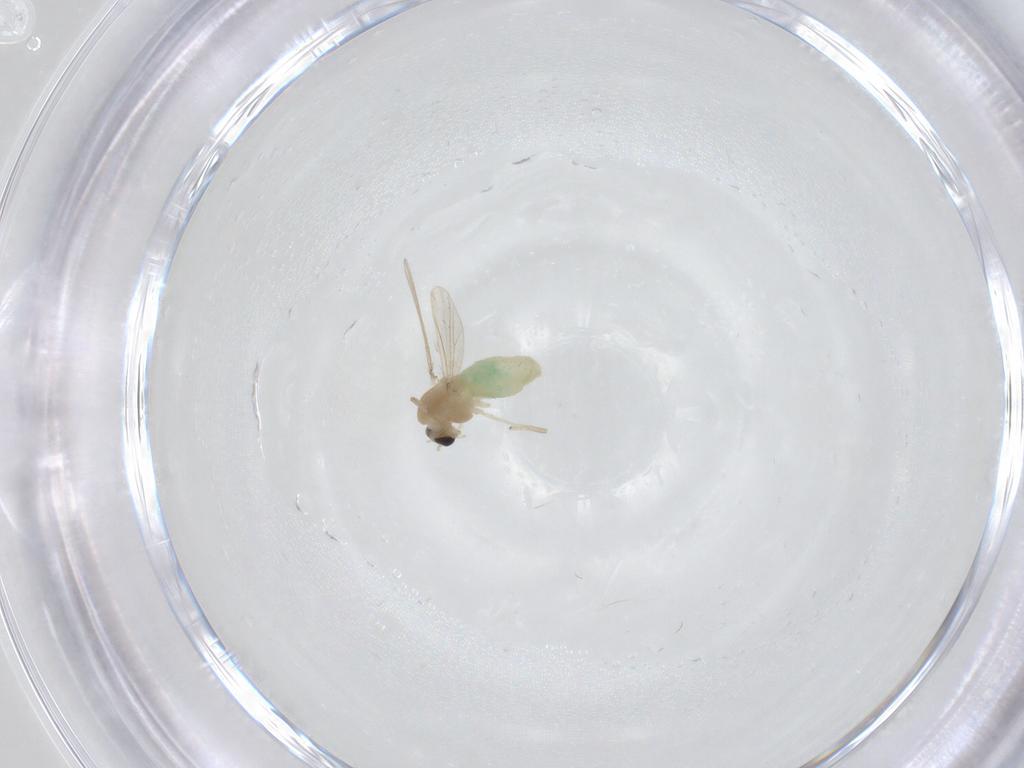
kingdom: Animalia
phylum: Arthropoda
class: Insecta
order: Diptera
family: Chironomidae
